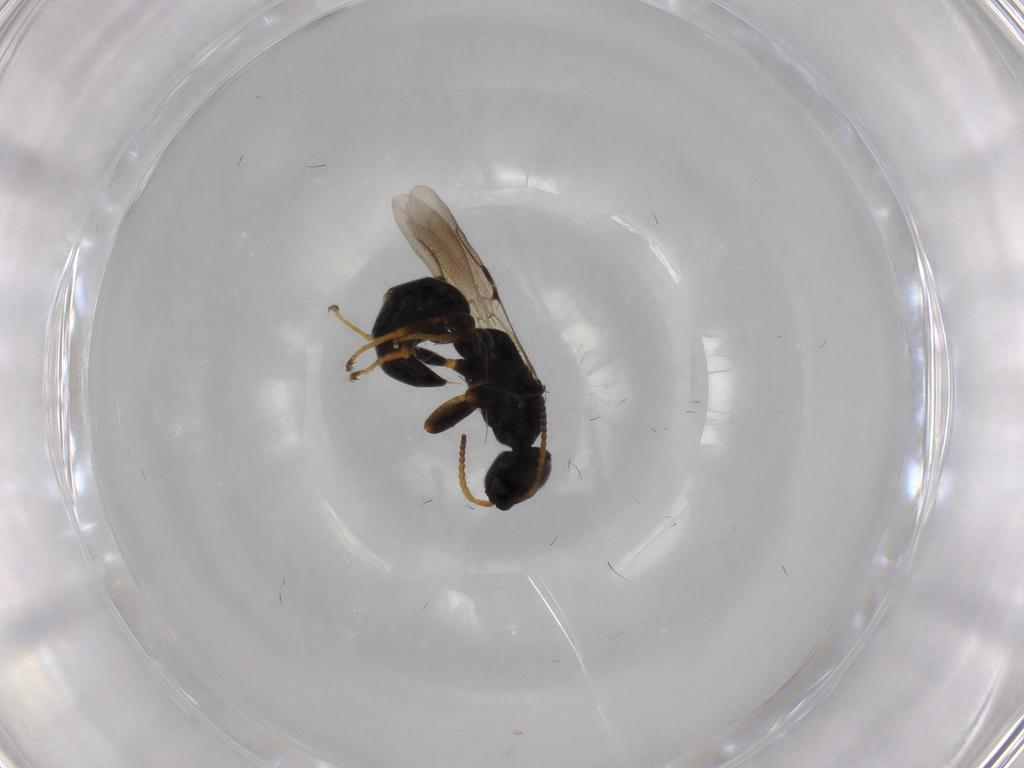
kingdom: Animalia
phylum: Arthropoda
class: Insecta
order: Hymenoptera
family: Bethylidae
